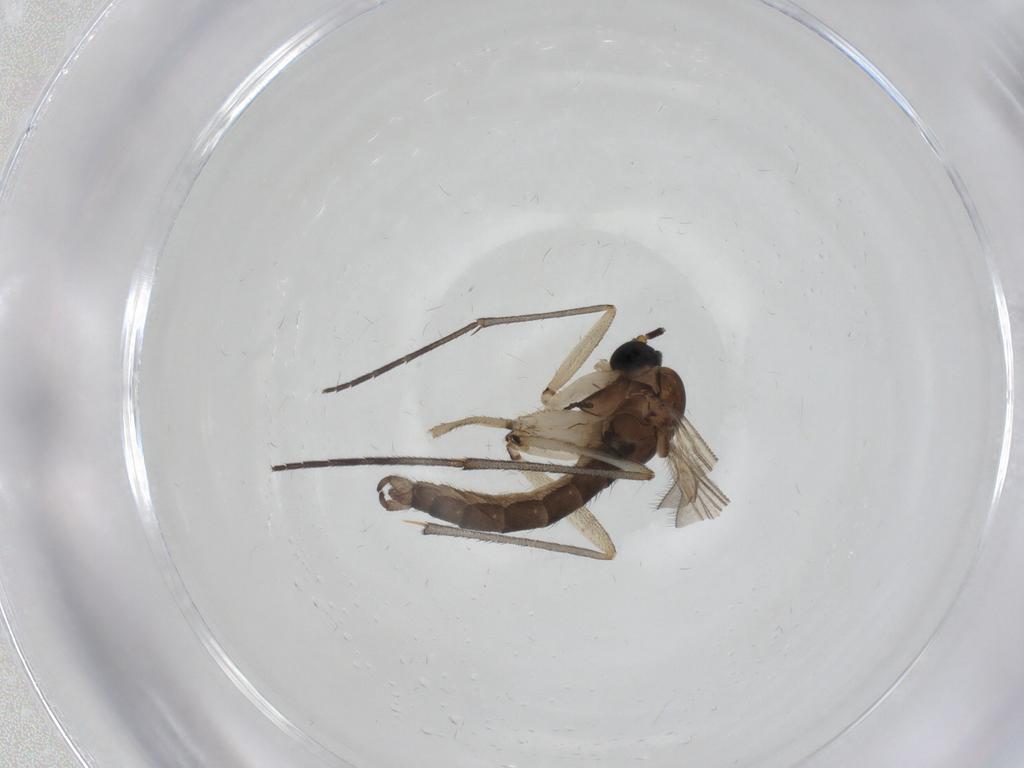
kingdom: Animalia
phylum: Arthropoda
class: Insecta
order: Diptera
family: Sciaridae
